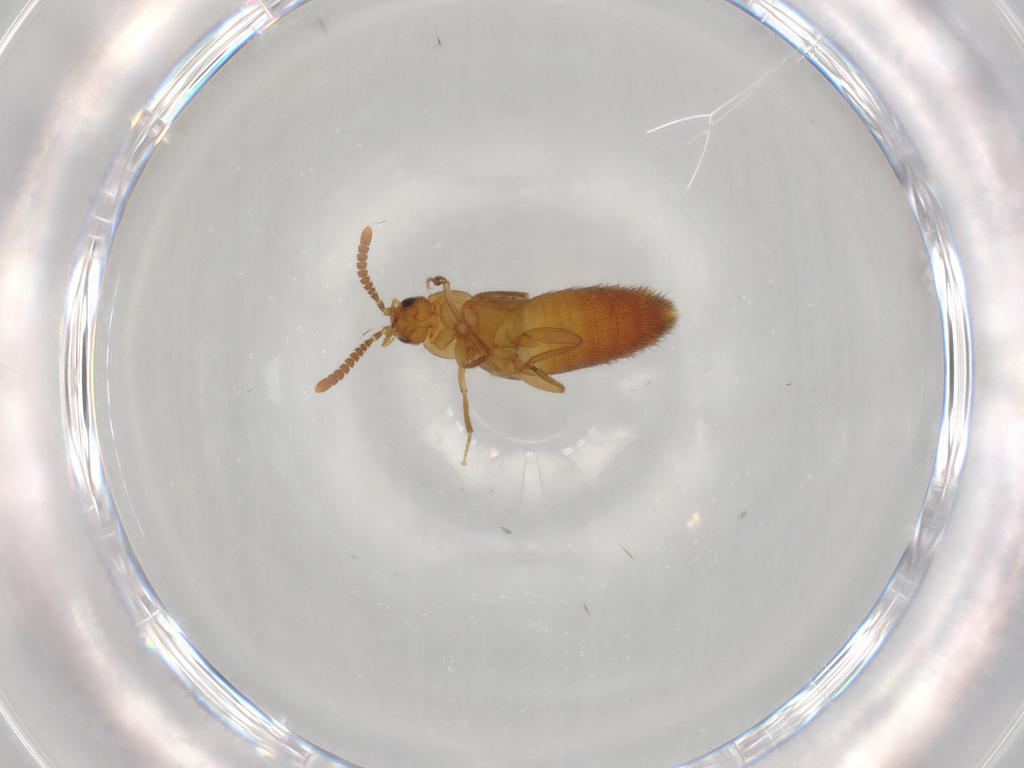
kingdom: Animalia
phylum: Arthropoda
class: Insecta
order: Coleoptera
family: Staphylinidae
